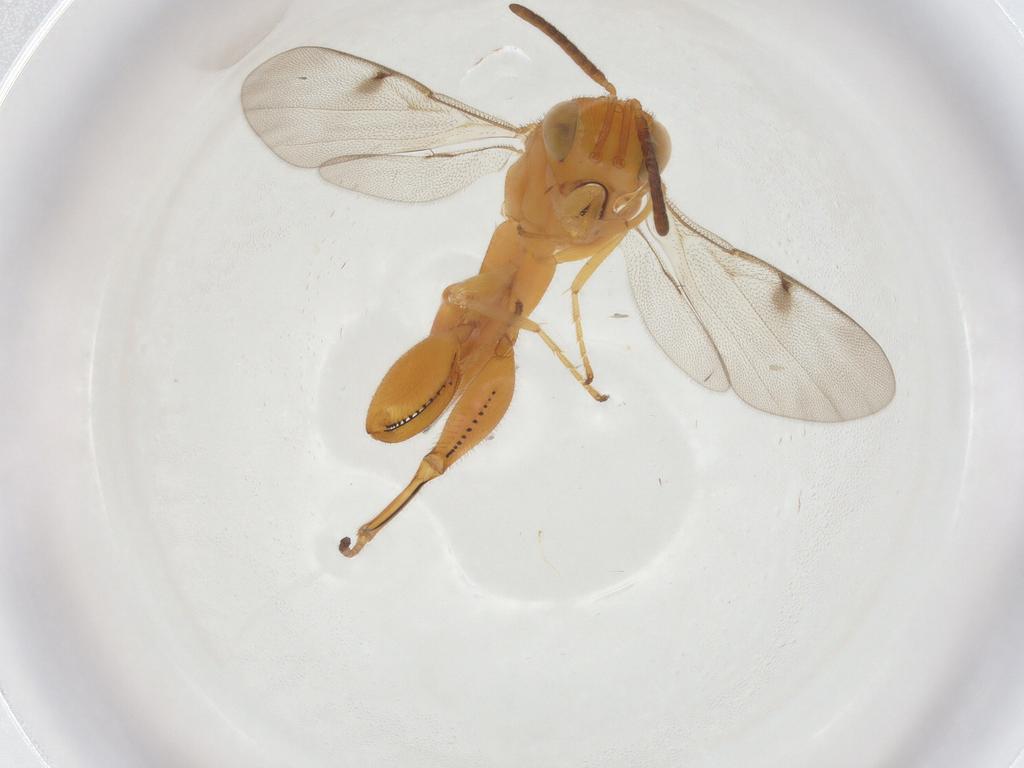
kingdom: Animalia
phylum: Arthropoda
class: Insecta
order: Hymenoptera
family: Chalcididae
